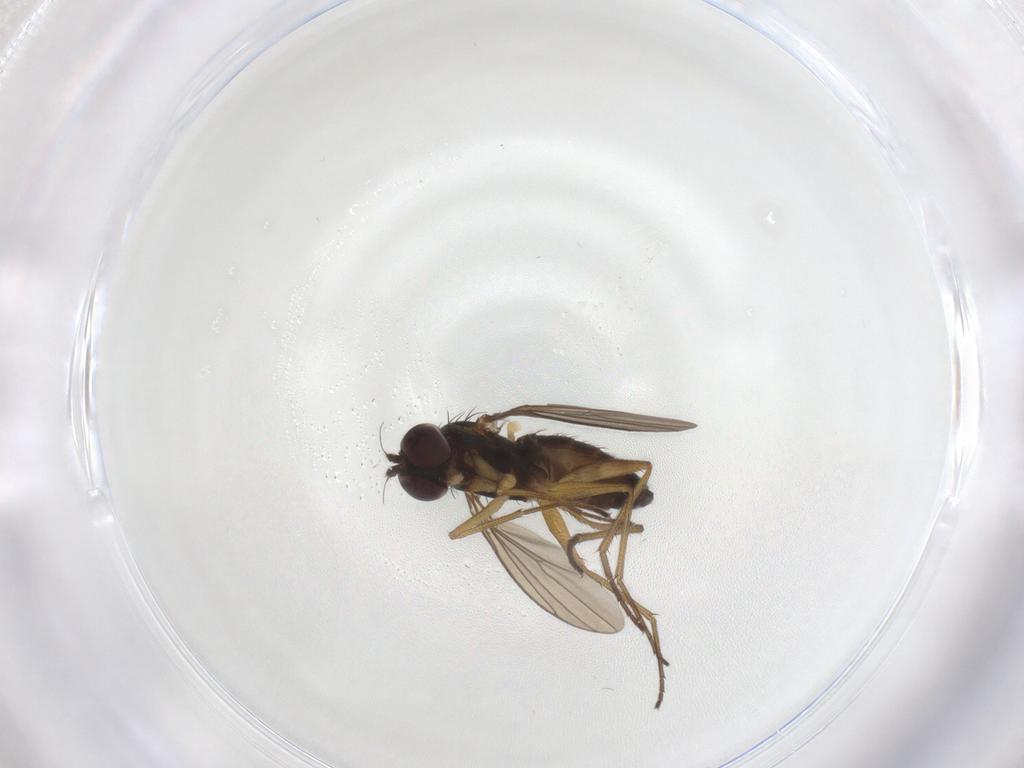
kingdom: Animalia
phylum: Arthropoda
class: Insecta
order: Diptera
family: Dolichopodidae
